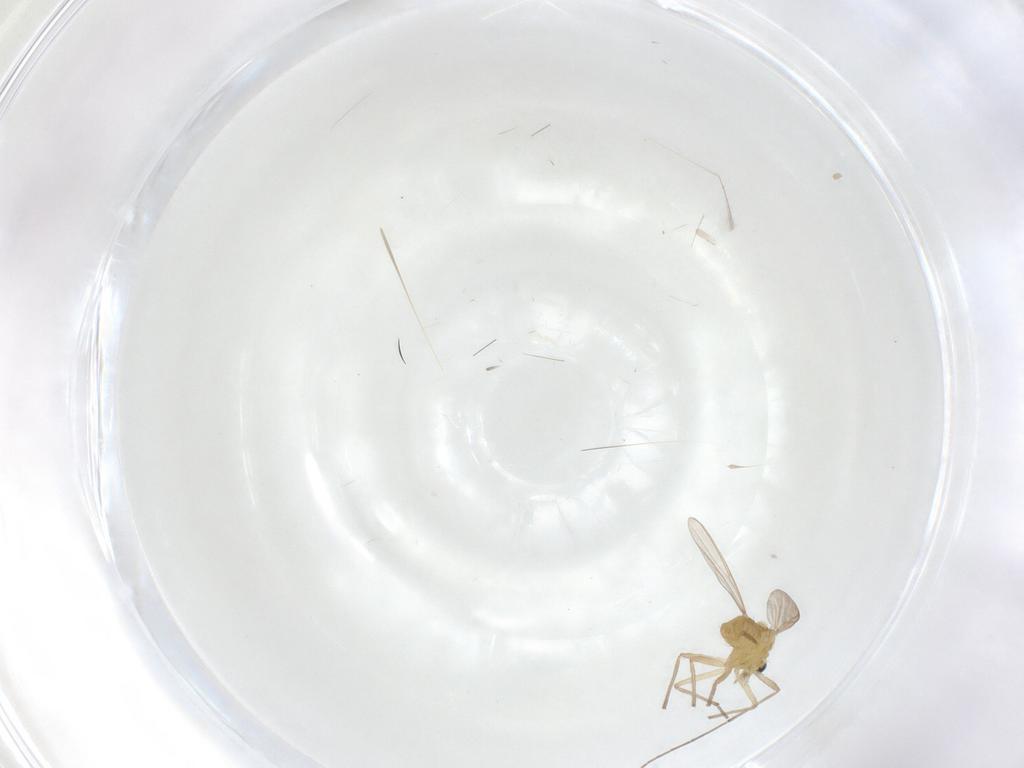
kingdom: Animalia
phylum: Arthropoda
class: Insecta
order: Diptera
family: Chironomidae
